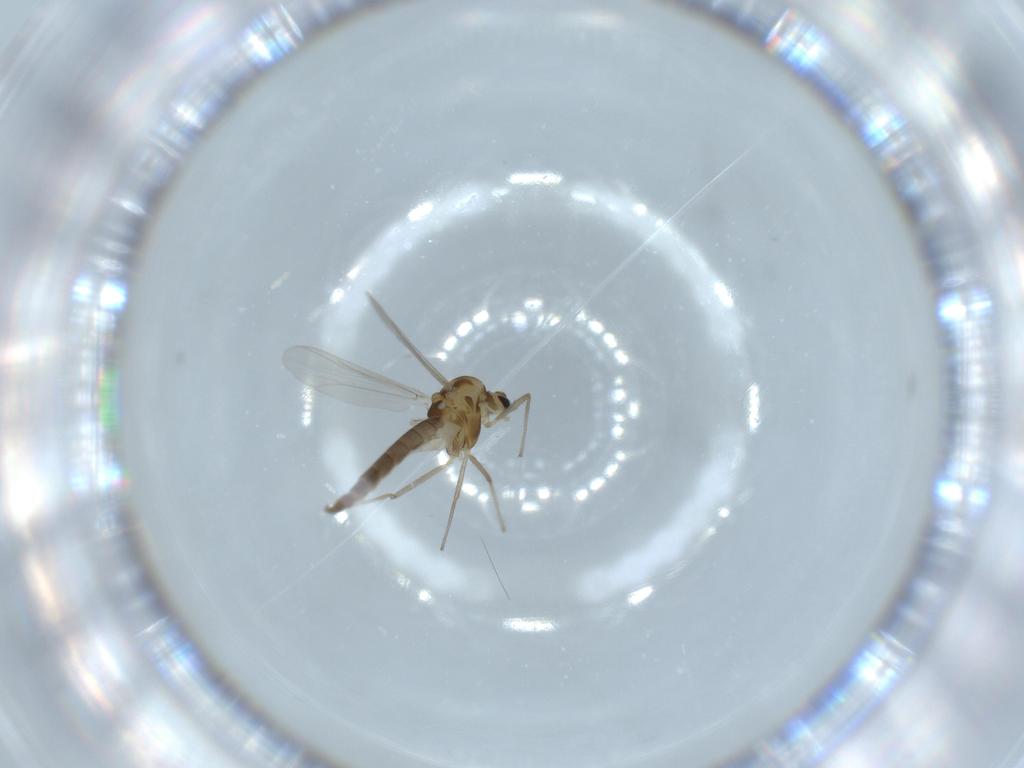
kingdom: Animalia
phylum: Arthropoda
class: Insecta
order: Diptera
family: Chironomidae
